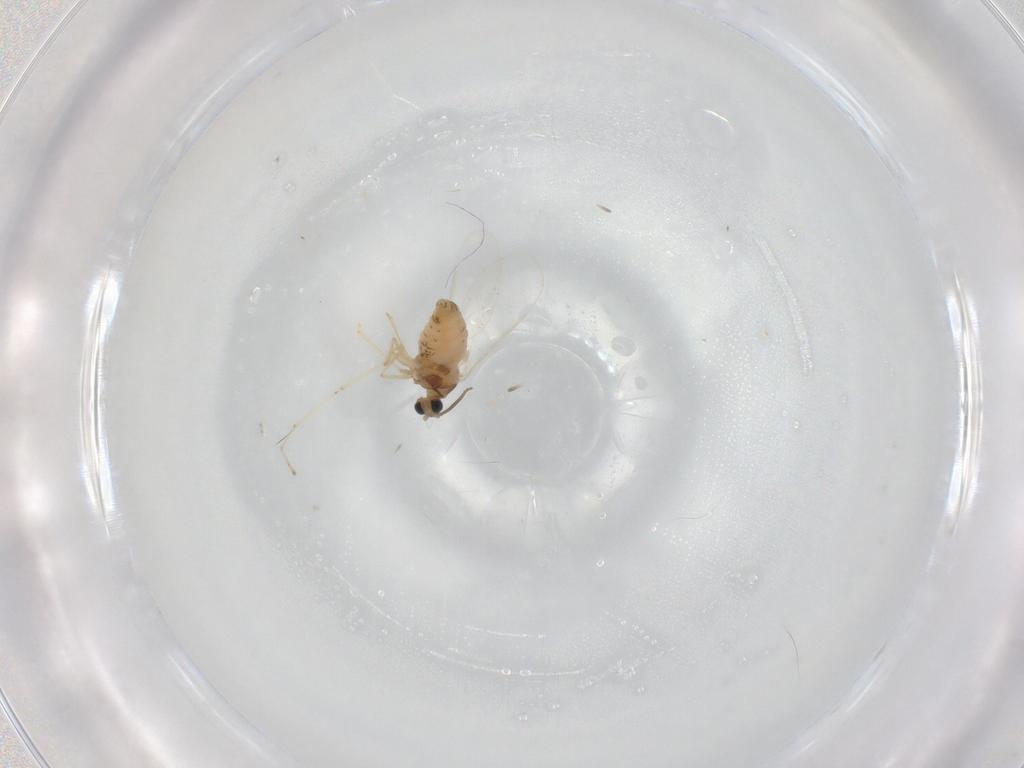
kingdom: Animalia
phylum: Arthropoda
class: Insecta
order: Diptera
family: Cecidomyiidae
